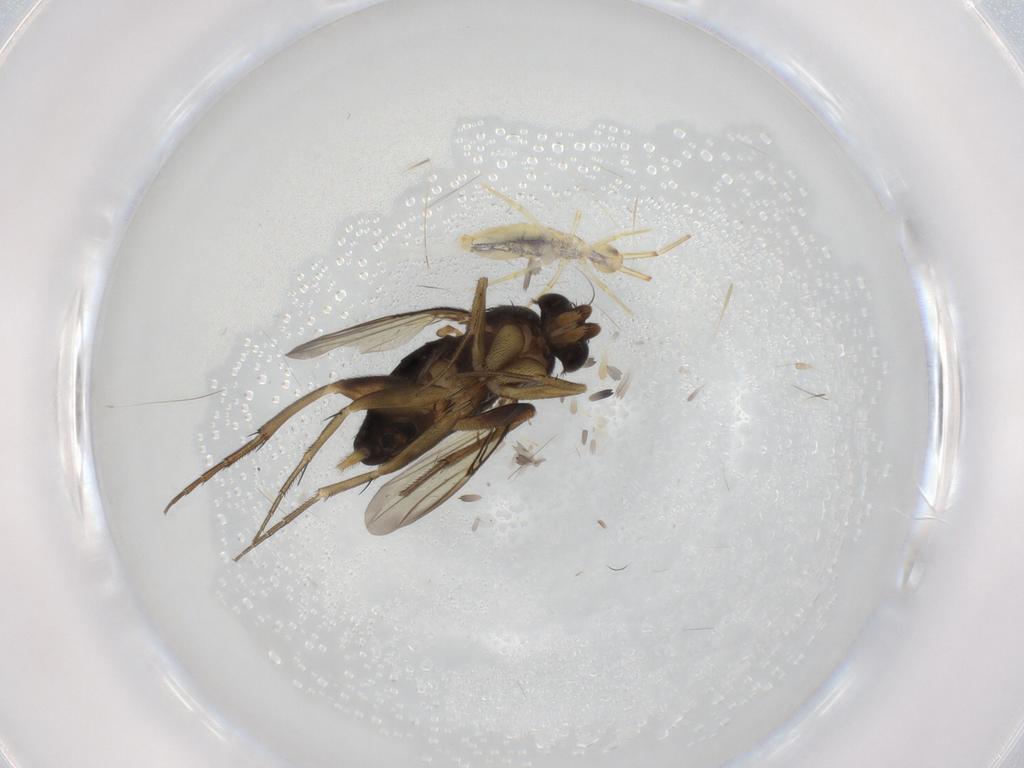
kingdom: Animalia
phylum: Arthropoda
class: Insecta
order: Diptera
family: Phoridae
